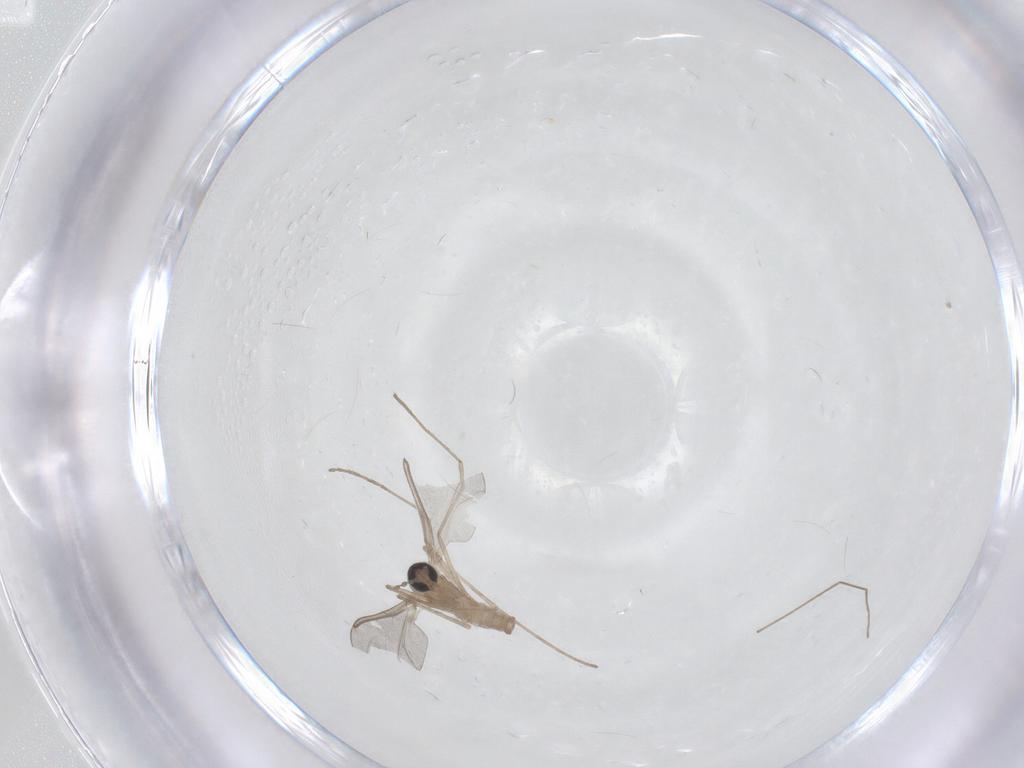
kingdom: Animalia
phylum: Arthropoda
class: Insecta
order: Diptera
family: Cecidomyiidae
